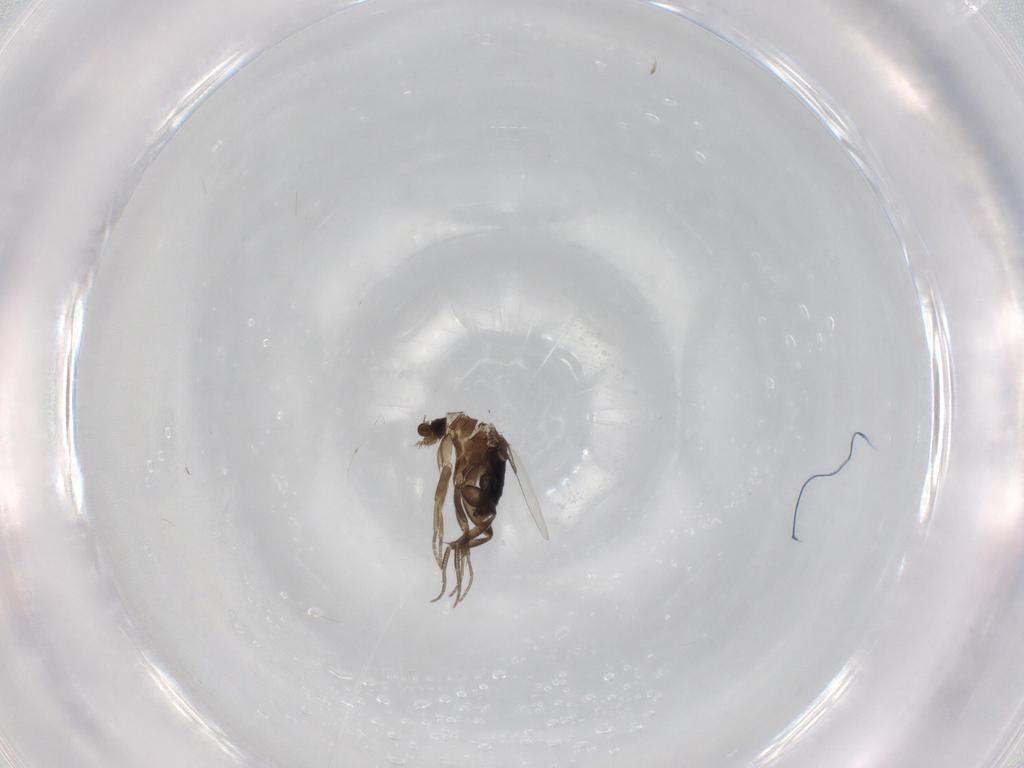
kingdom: Animalia
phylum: Arthropoda
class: Insecta
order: Diptera
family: Phoridae
